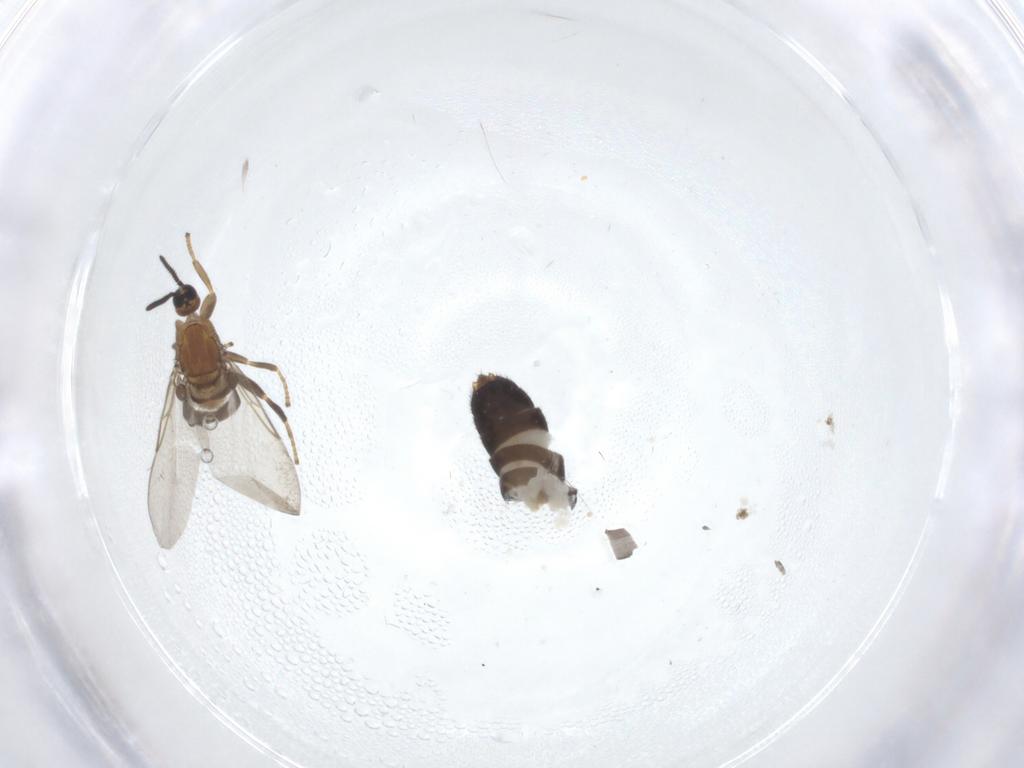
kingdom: Animalia
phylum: Arthropoda
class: Insecta
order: Diptera
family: Scatopsidae
